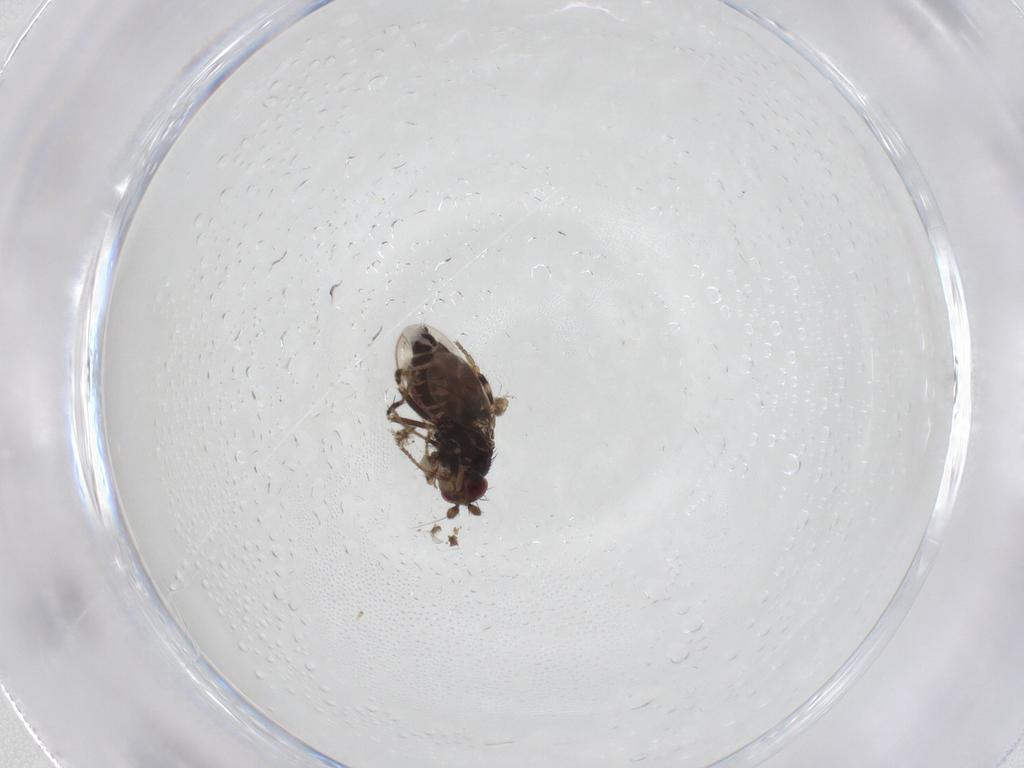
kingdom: Animalia
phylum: Arthropoda
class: Insecta
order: Diptera
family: Sphaeroceridae
